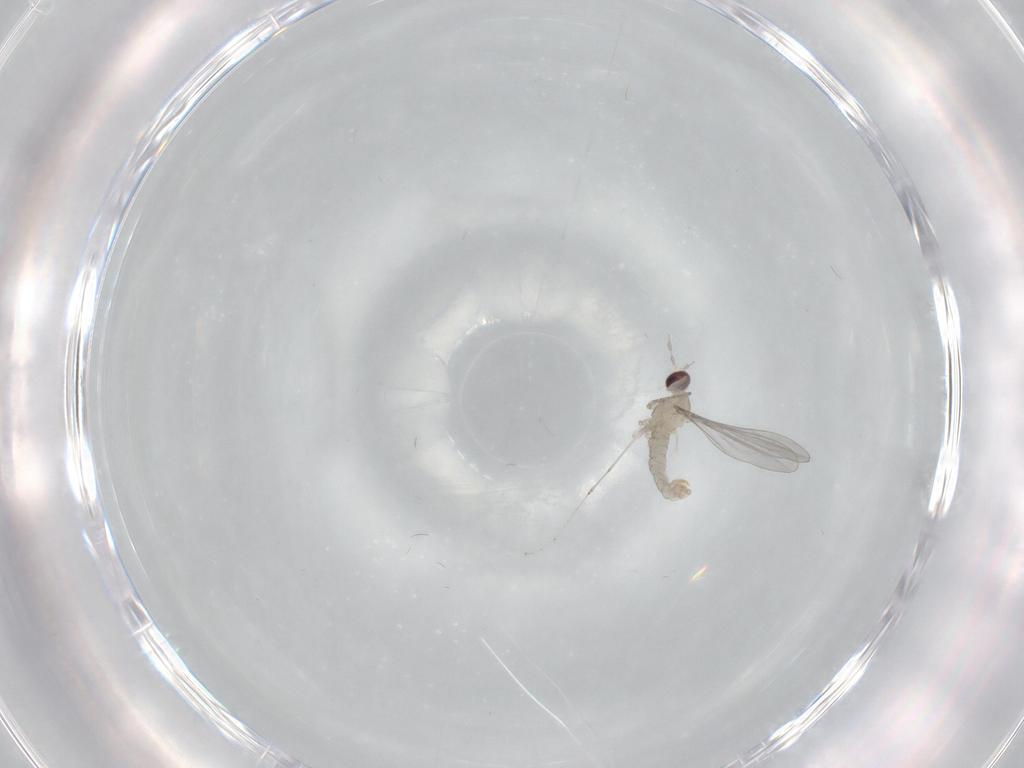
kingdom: Animalia
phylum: Arthropoda
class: Insecta
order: Diptera
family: Cecidomyiidae
